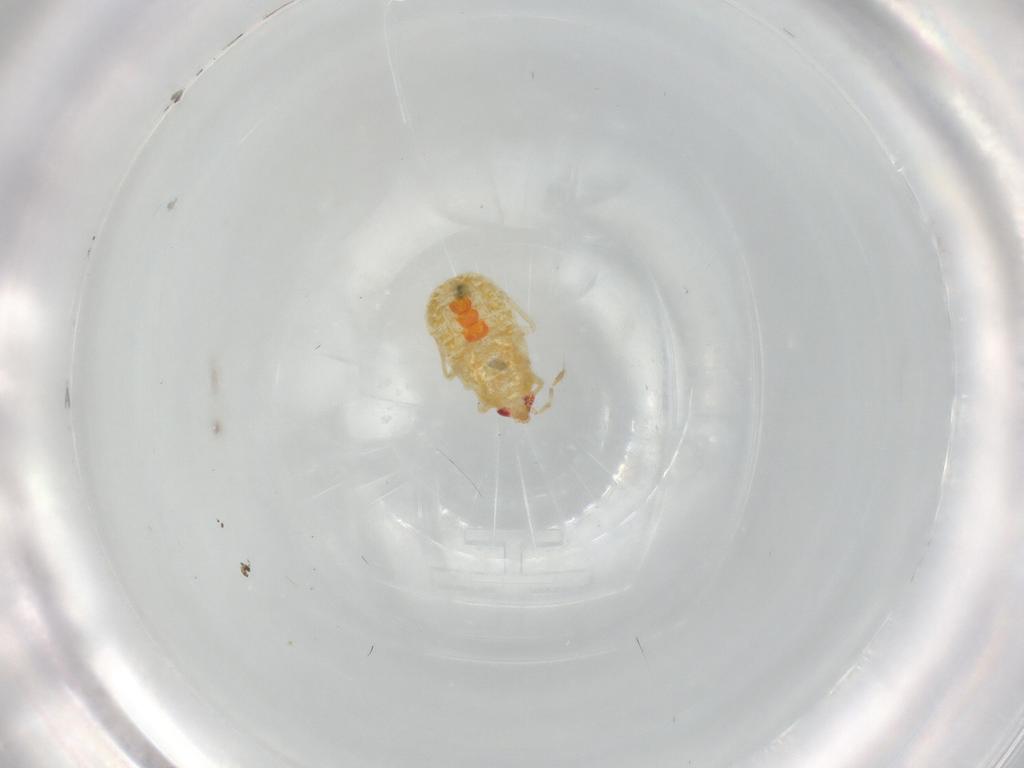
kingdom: Animalia
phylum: Arthropoda
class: Insecta
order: Hemiptera
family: Anthocoridae
